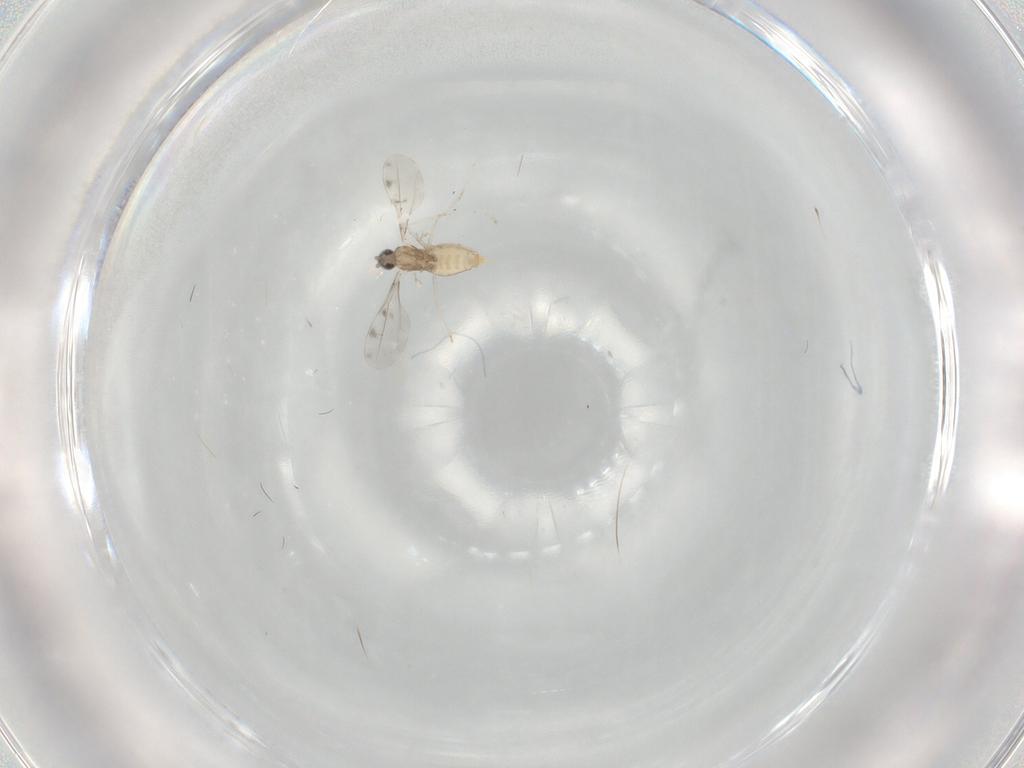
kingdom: Animalia
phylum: Arthropoda
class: Insecta
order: Diptera
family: Cecidomyiidae
